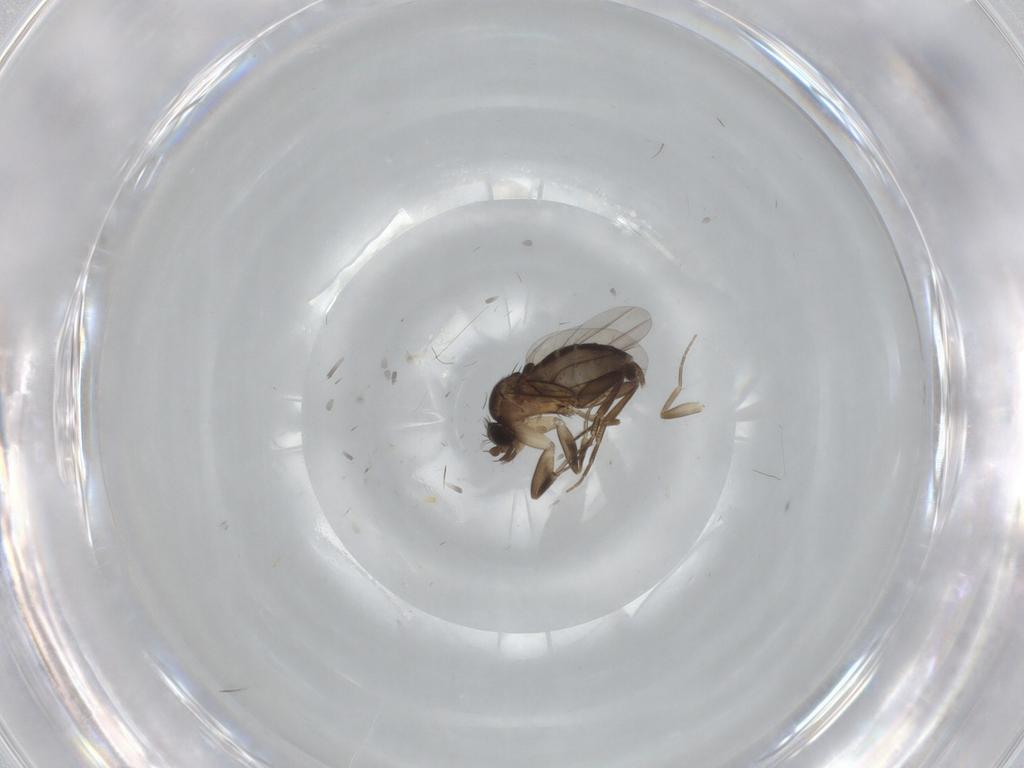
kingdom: Animalia
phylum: Arthropoda
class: Insecta
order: Diptera
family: Phoridae
